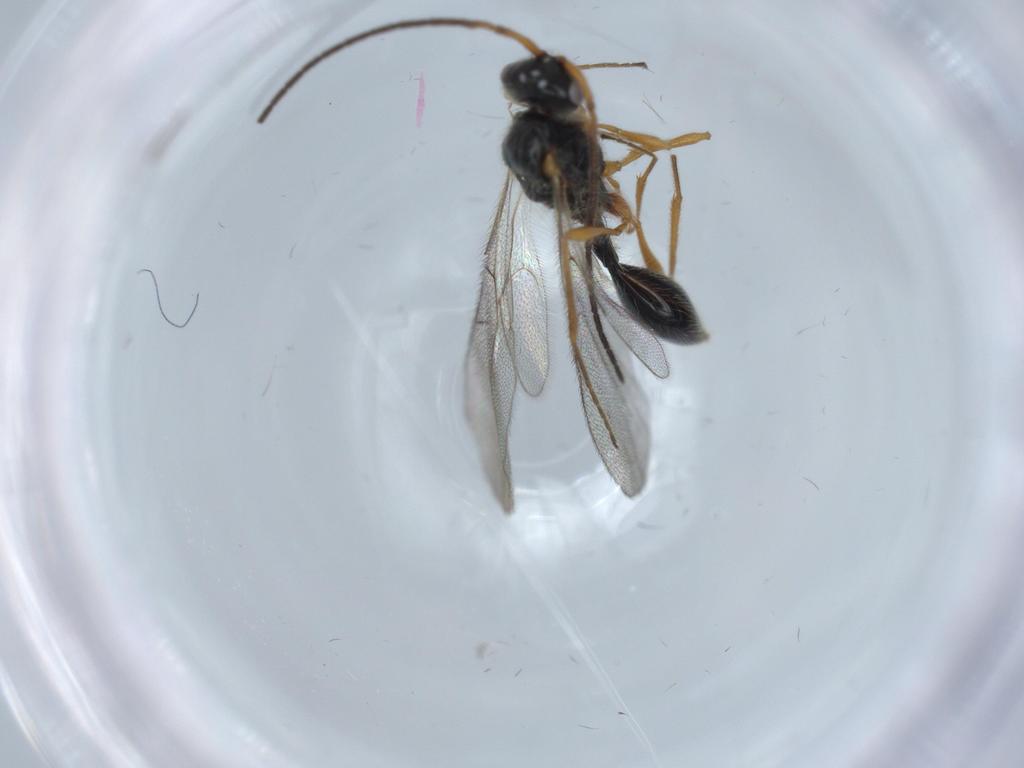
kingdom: Animalia
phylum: Arthropoda
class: Insecta
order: Hymenoptera
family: Diapriidae
